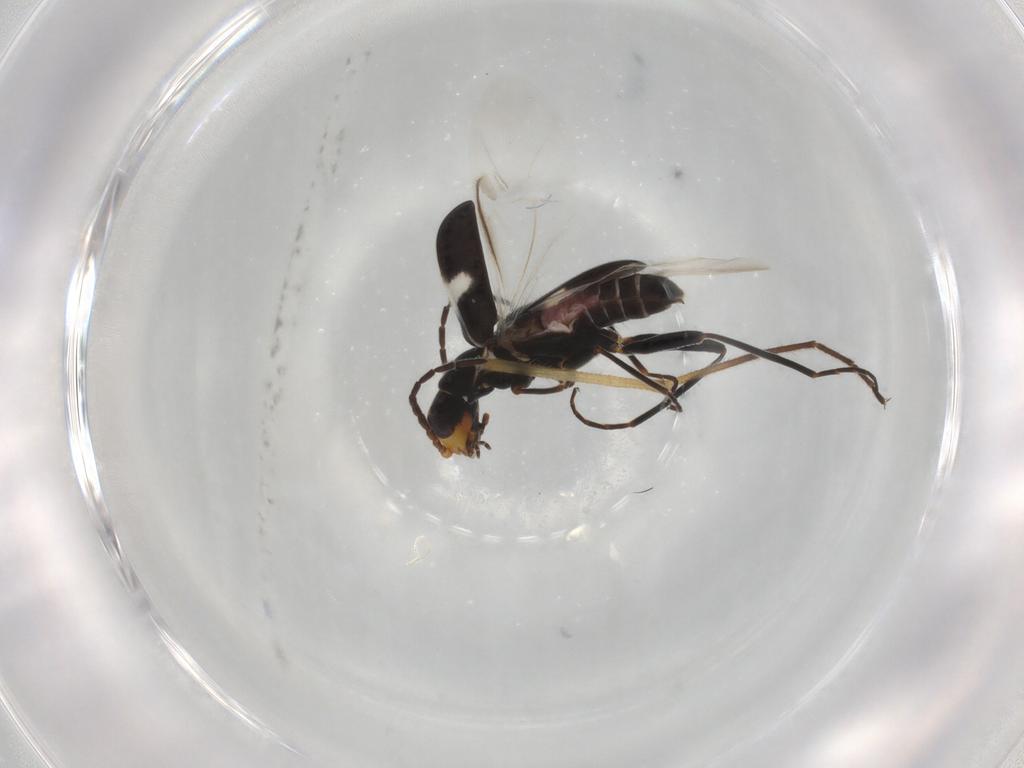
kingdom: Animalia
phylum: Arthropoda
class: Insecta
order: Coleoptera
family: Melyridae
